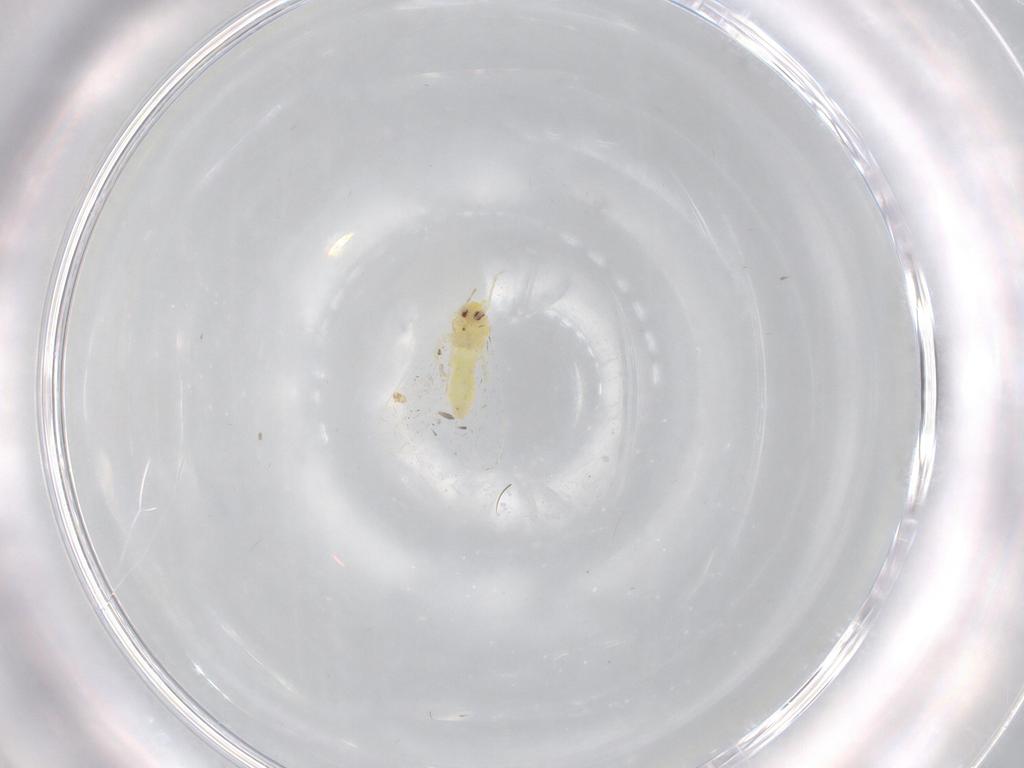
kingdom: Animalia
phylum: Arthropoda
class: Insecta
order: Hemiptera
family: Aleyrodidae
